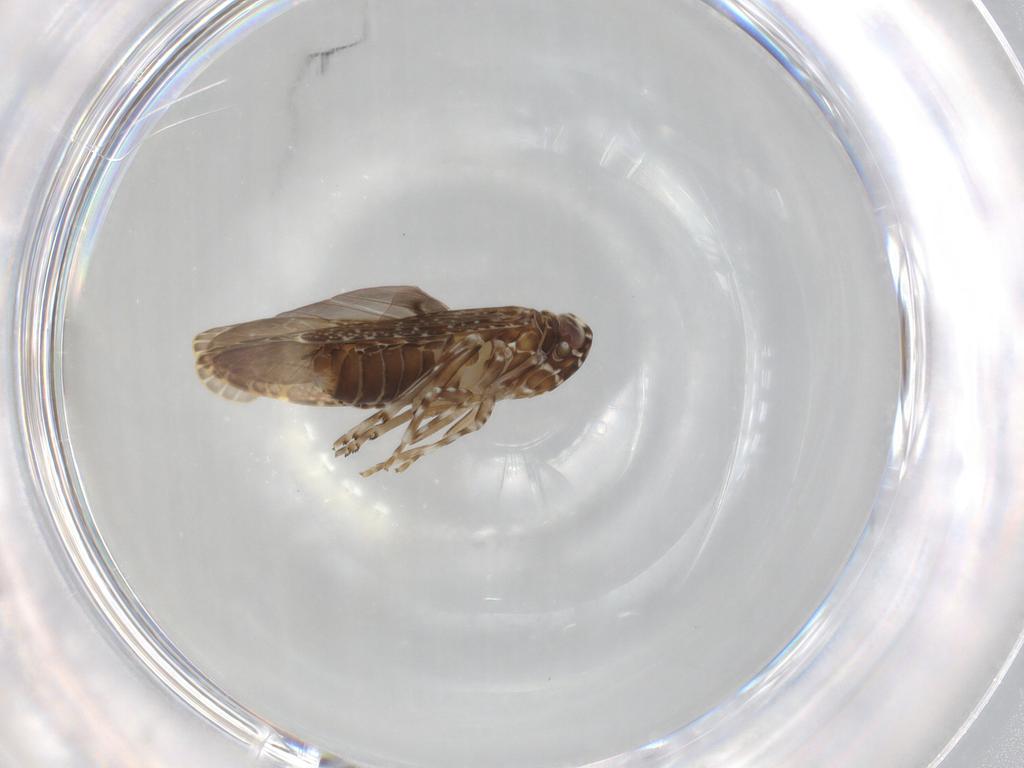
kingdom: Animalia
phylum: Arthropoda
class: Insecta
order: Hemiptera
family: Achilidae
